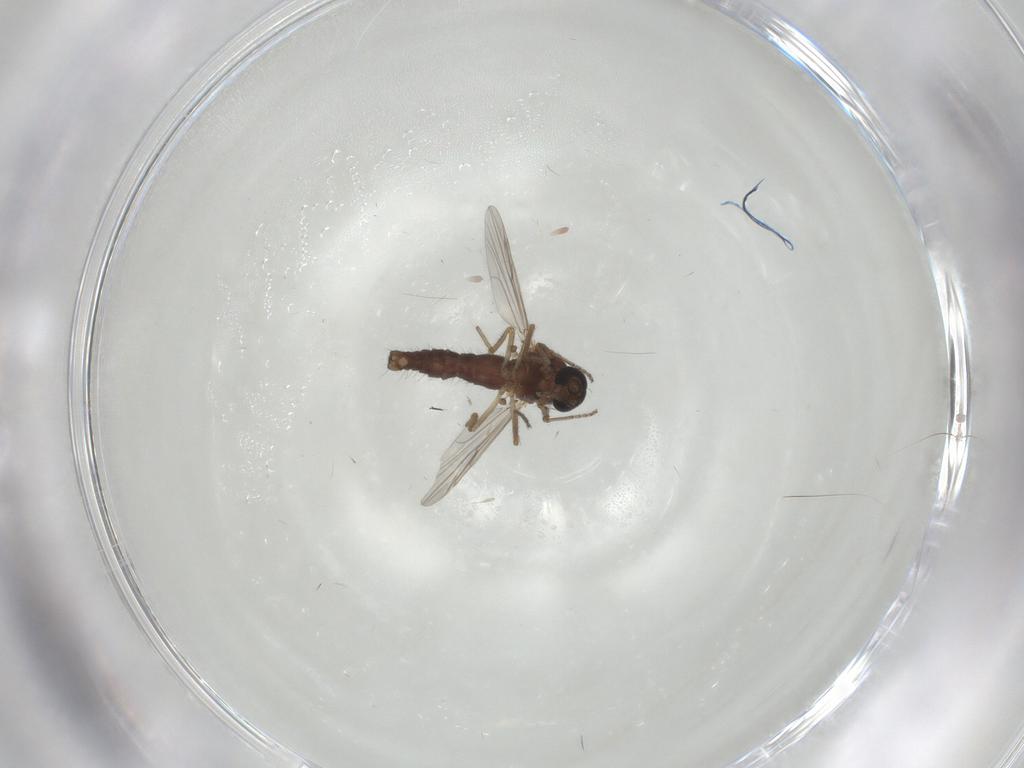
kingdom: Animalia
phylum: Arthropoda
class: Insecta
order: Diptera
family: Ceratopogonidae
